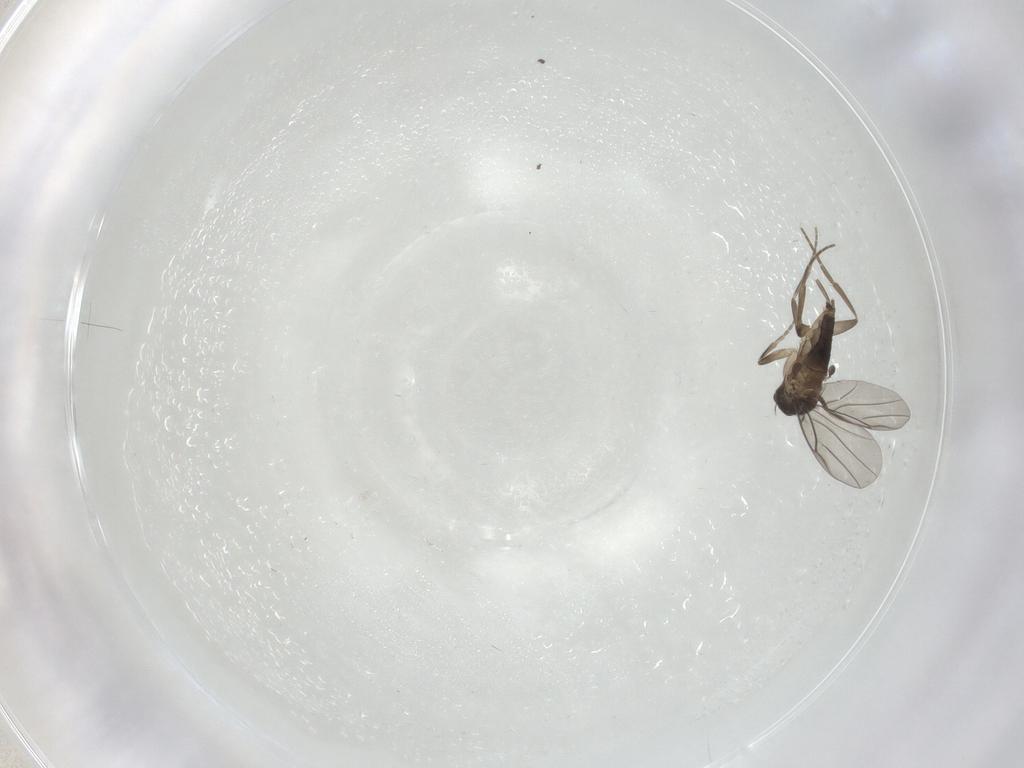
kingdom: Animalia
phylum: Arthropoda
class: Insecta
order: Diptera
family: Phoridae
